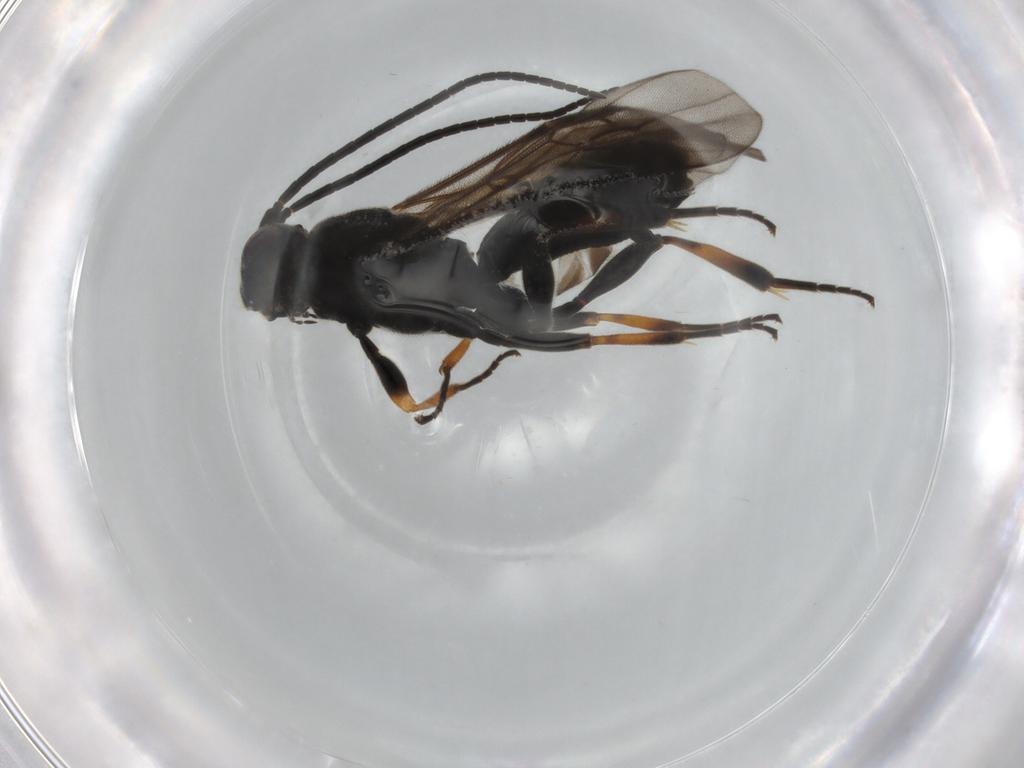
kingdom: Animalia
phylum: Arthropoda
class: Insecta
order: Hymenoptera
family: Braconidae
